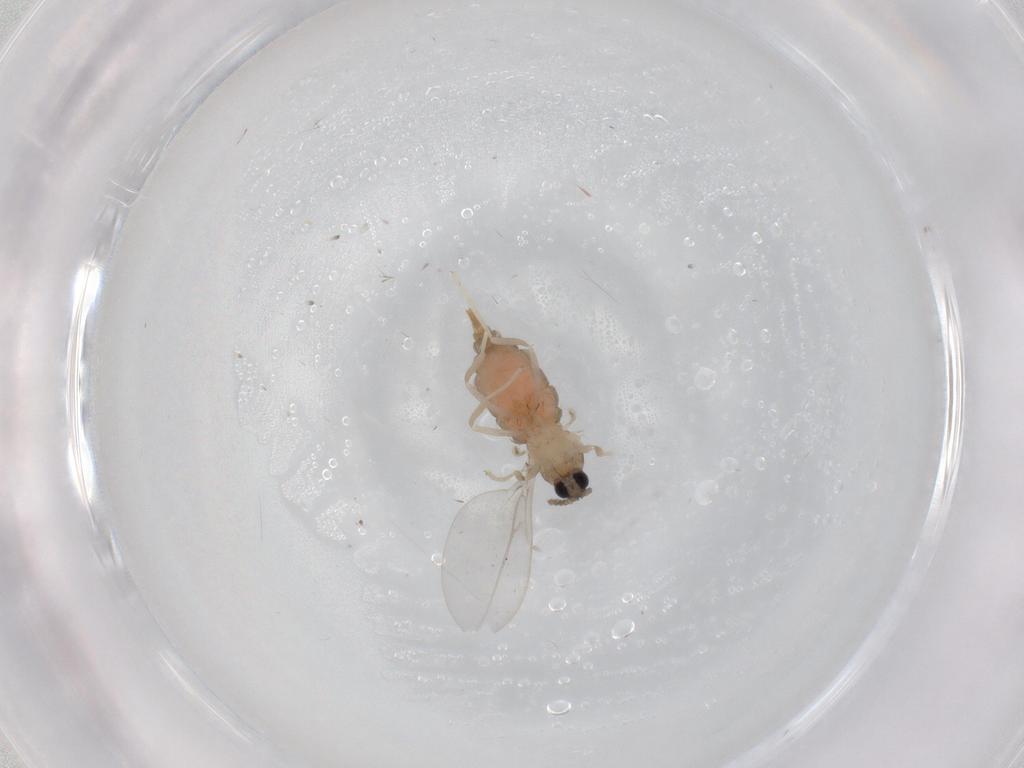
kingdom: Animalia
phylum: Arthropoda
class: Insecta
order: Diptera
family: Cecidomyiidae
